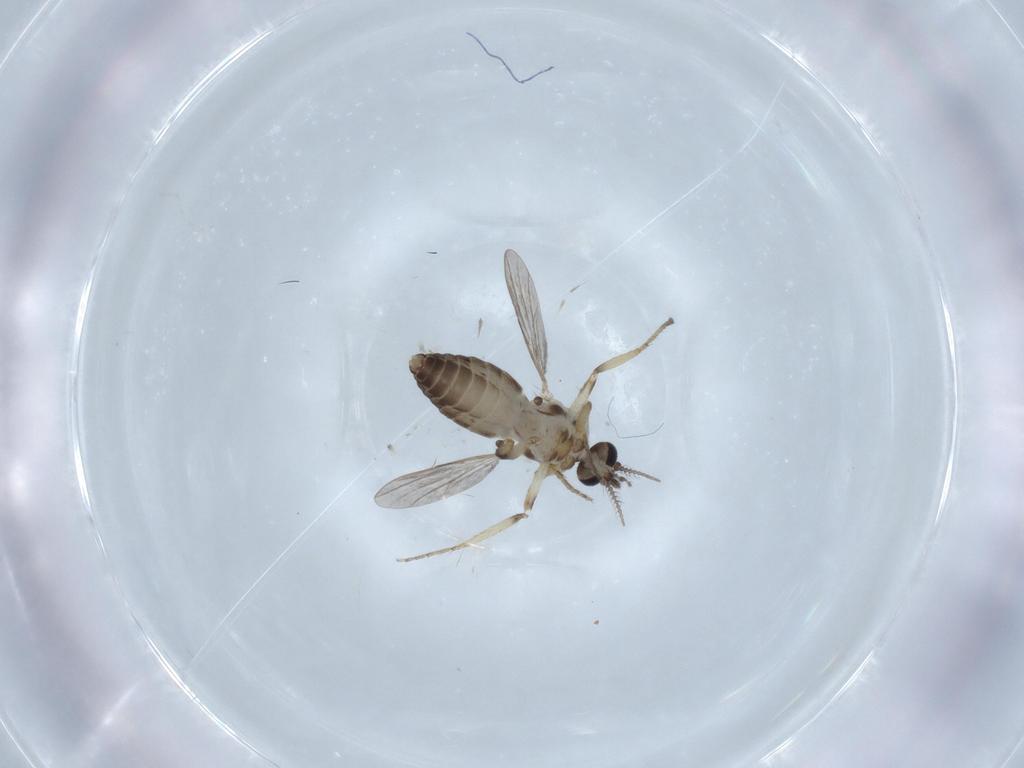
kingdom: Animalia
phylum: Arthropoda
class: Insecta
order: Diptera
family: Ceratopogonidae
